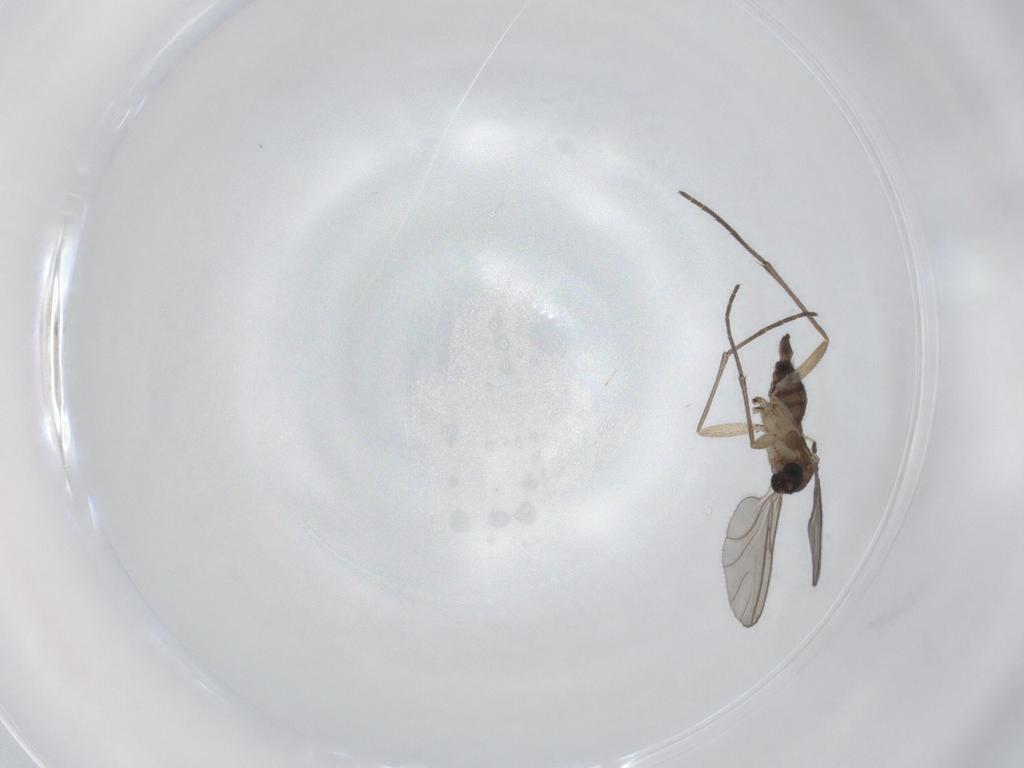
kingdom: Animalia
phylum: Arthropoda
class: Insecta
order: Diptera
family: Sciaridae
